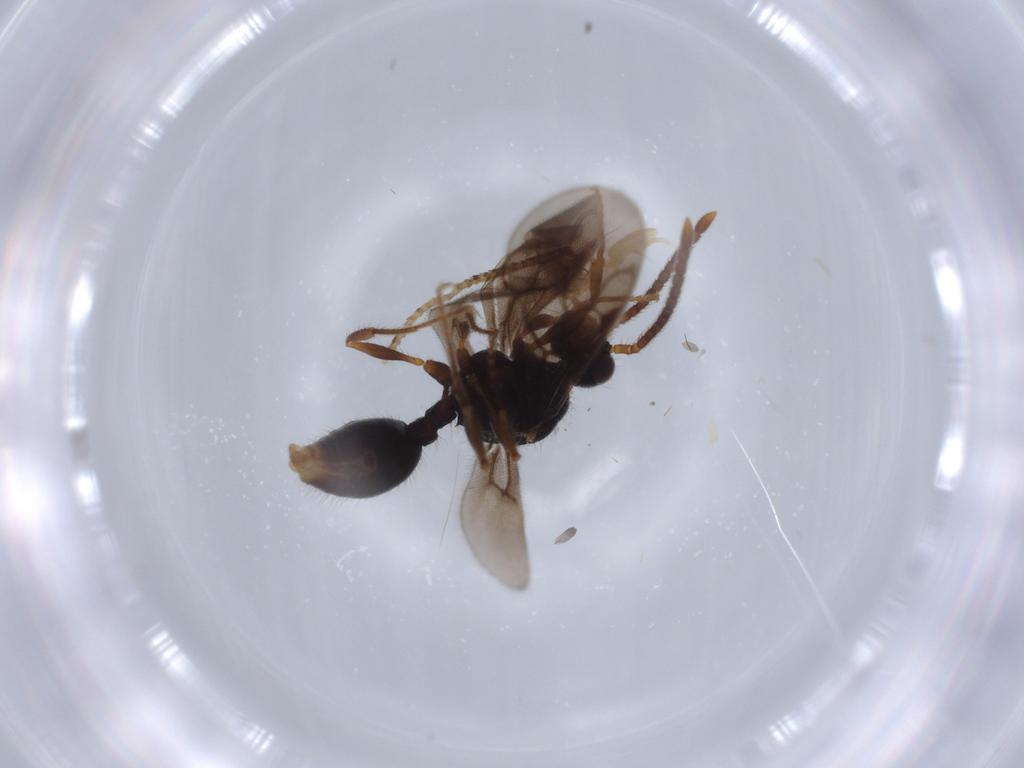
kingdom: Animalia
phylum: Arthropoda
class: Insecta
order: Hymenoptera
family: Formicidae
